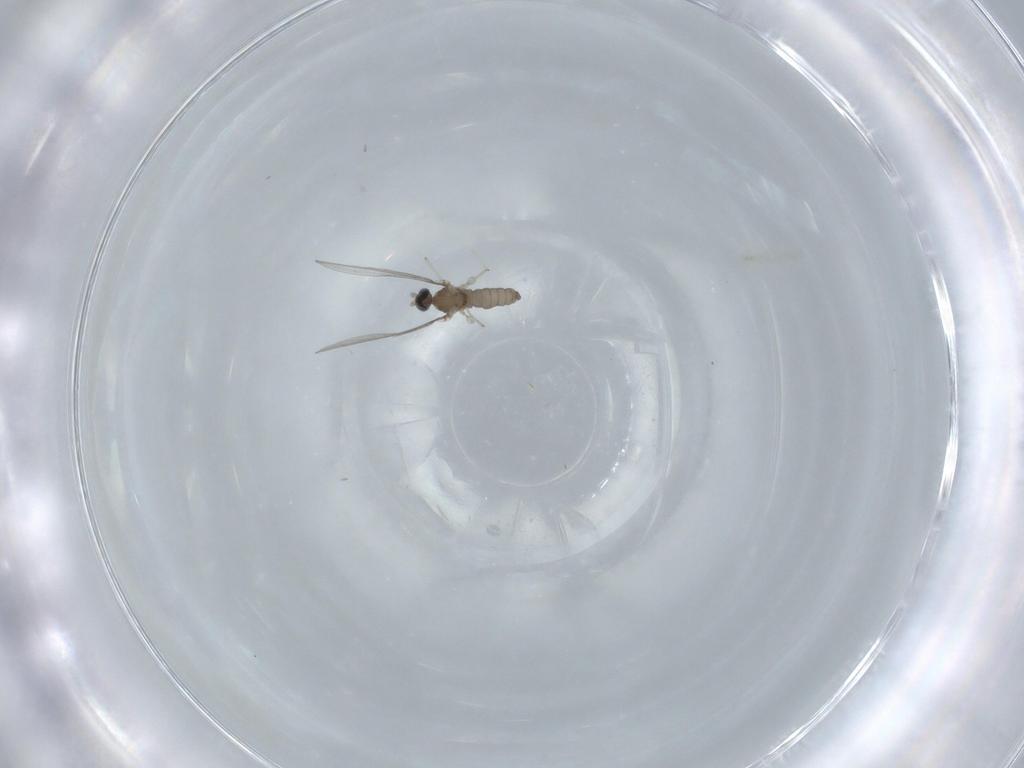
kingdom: Animalia
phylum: Arthropoda
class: Insecta
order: Diptera
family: Cecidomyiidae
